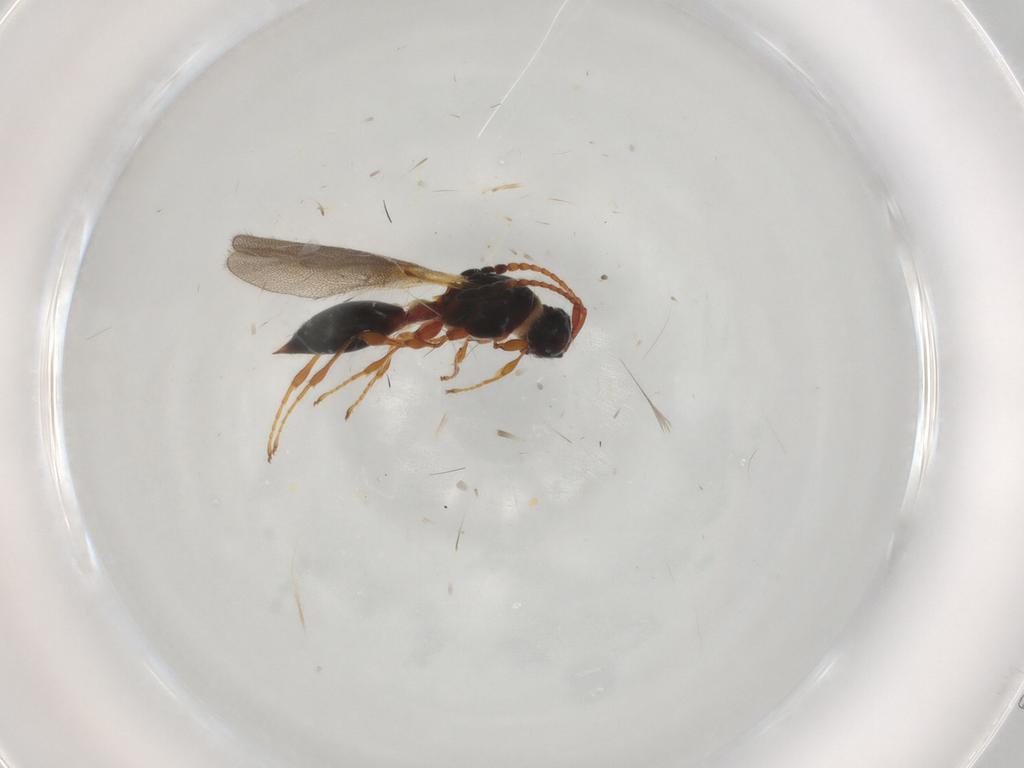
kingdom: Animalia
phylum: Arthropoda
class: Insecta
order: Hymenoptera
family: Diapriidae
